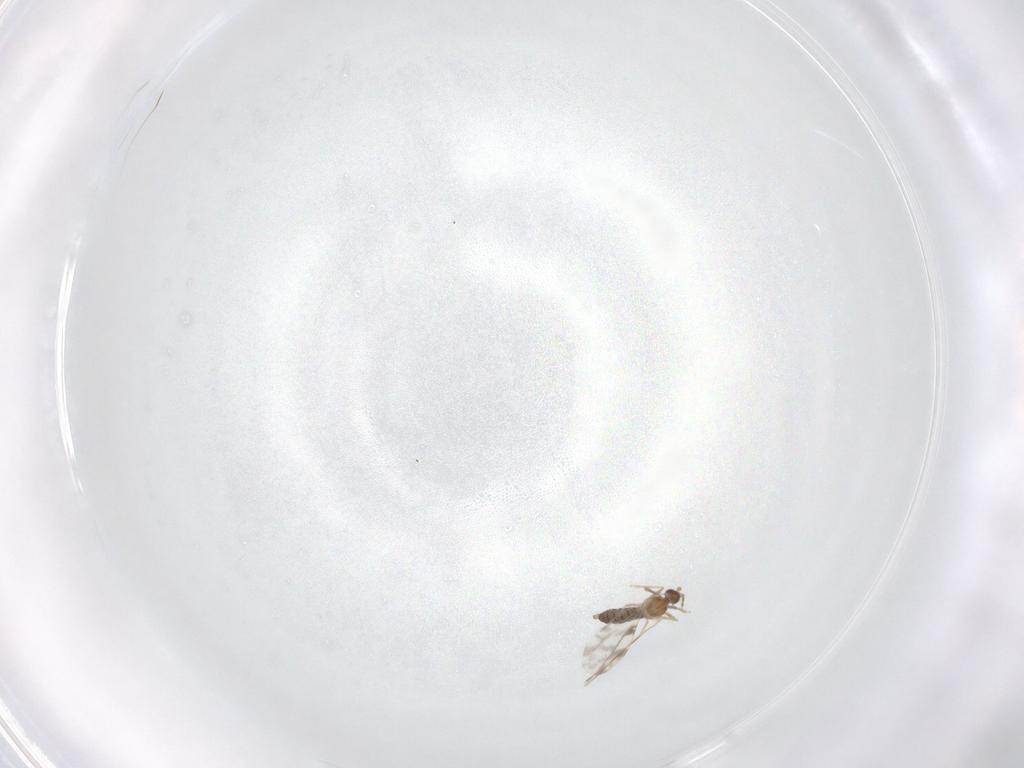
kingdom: Animalia
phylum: Arthropoda
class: Insecta
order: Diptera
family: Cecidomyiidae
